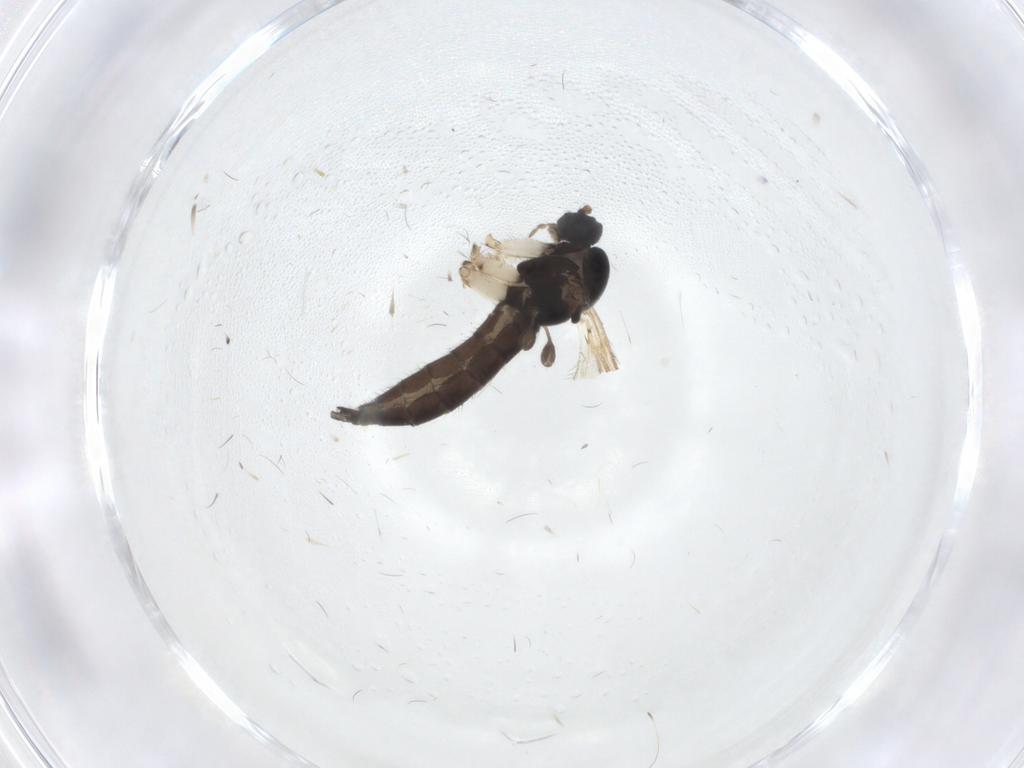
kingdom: Animalia
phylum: Arthropoda
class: Insecta
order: Diptera
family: Sciaridae
